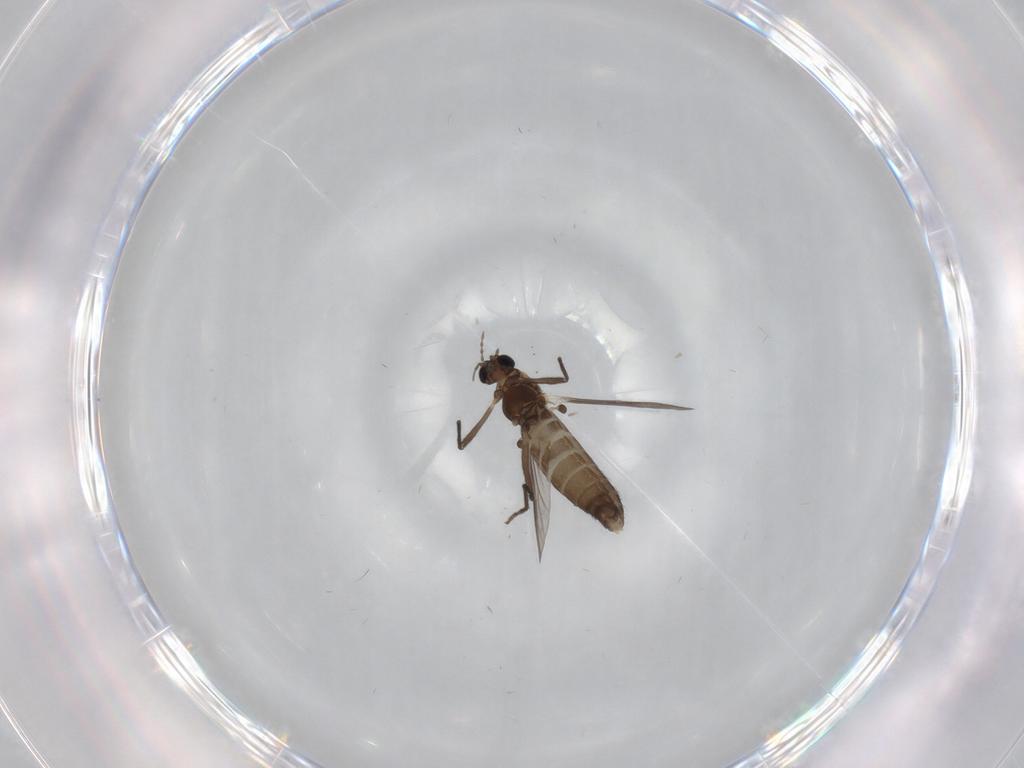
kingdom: Animalia
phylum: Arthropoda
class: Insecta
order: Diptera
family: Chironomidae
